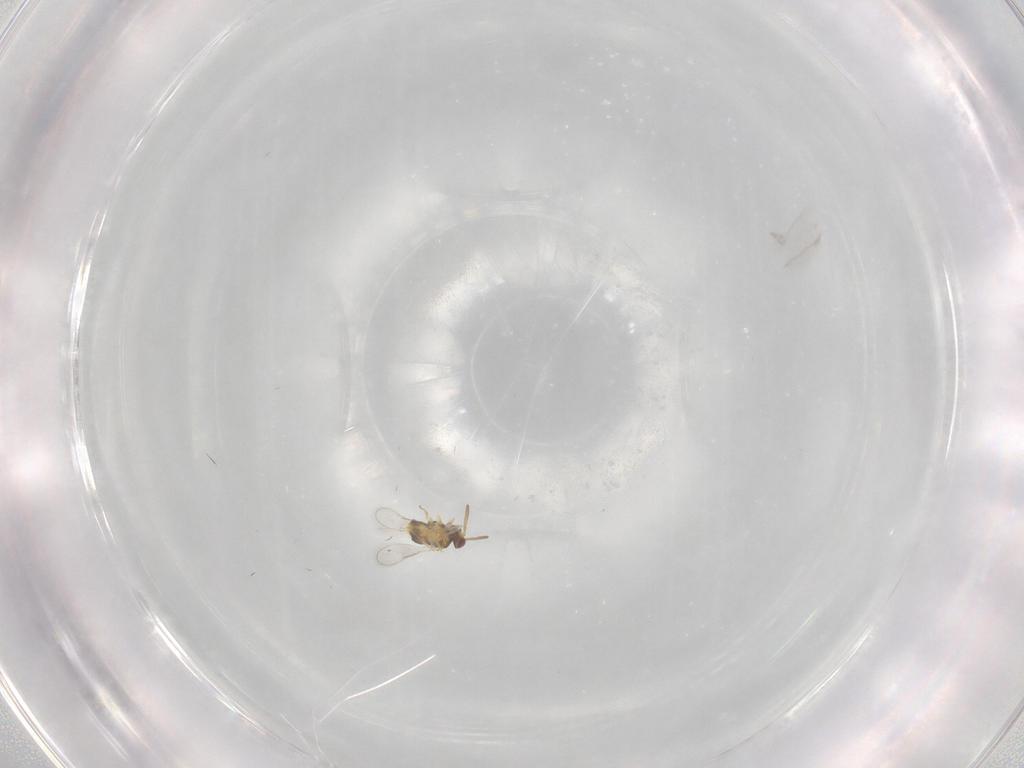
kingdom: Animalia
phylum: Arthropoda
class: Insecta
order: Hymenoptera
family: Aphelinidae
